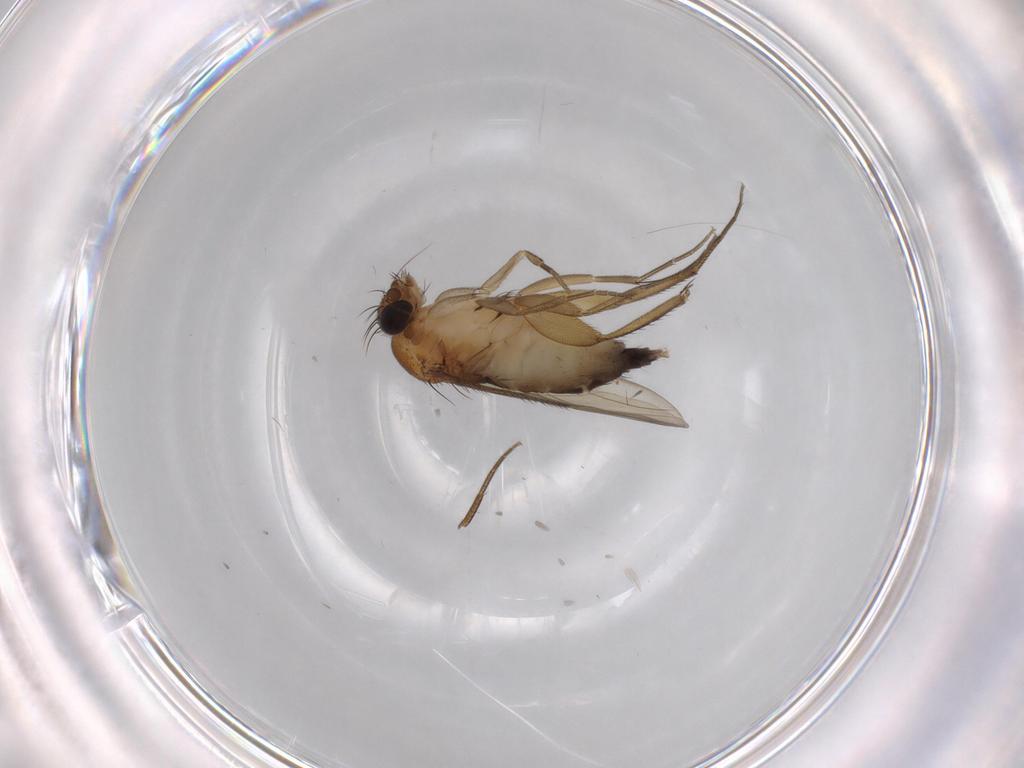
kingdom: Animalia
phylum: Arthropoda
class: Insecta
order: Diptera
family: Phoridae
